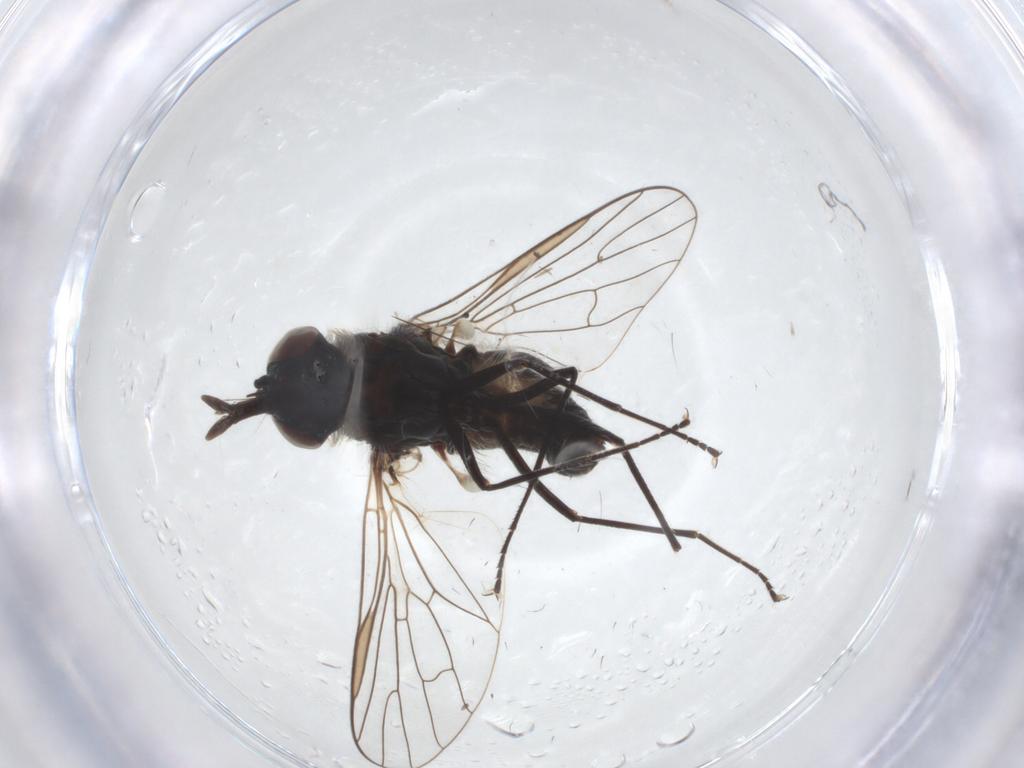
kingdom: Animalia
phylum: Arthropoda
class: Insecta
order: Diptera
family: Bombyliidae
